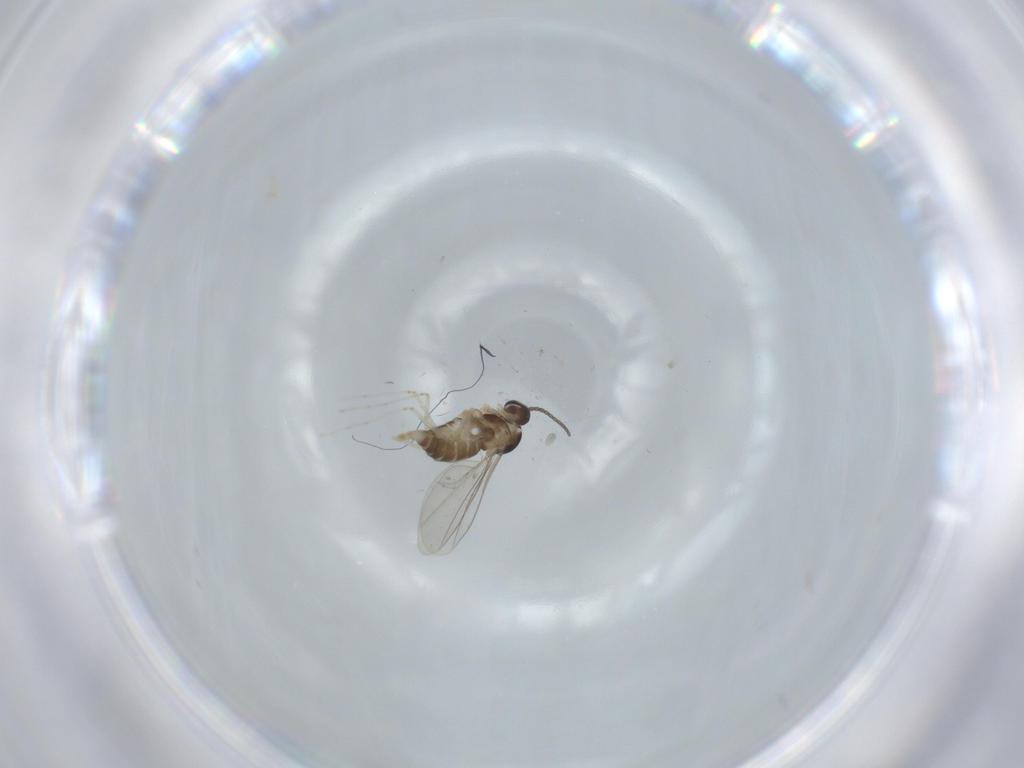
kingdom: Animalia
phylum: Arthropoda
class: Insecta
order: Diptera
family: Cecidomyiidae
